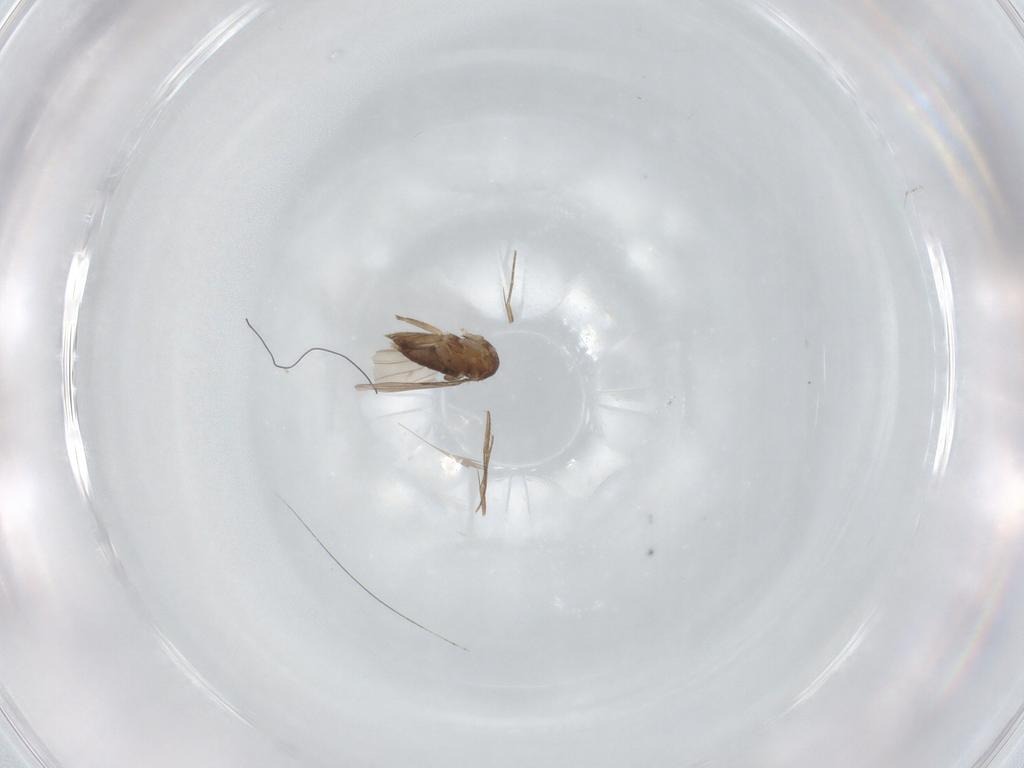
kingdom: Animalia
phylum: Arthropoda
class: Insecta
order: Diptera
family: Phoridae
